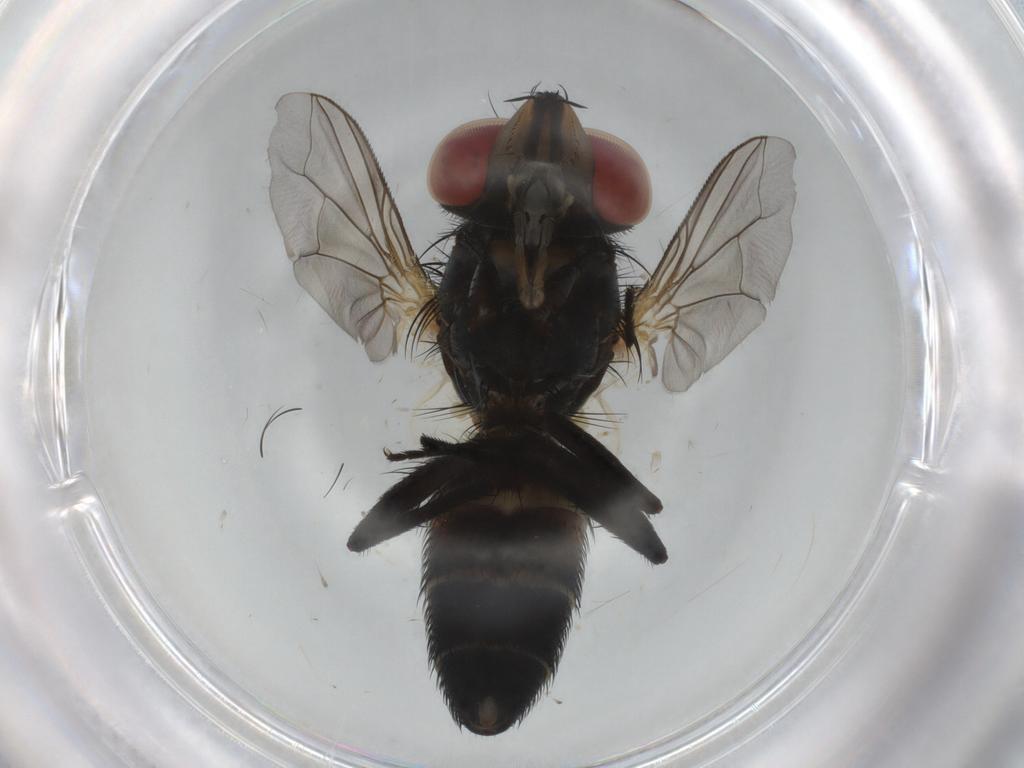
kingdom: Animalia
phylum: Arthropoda
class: Insecta
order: Diptera
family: Anthomyiidae
